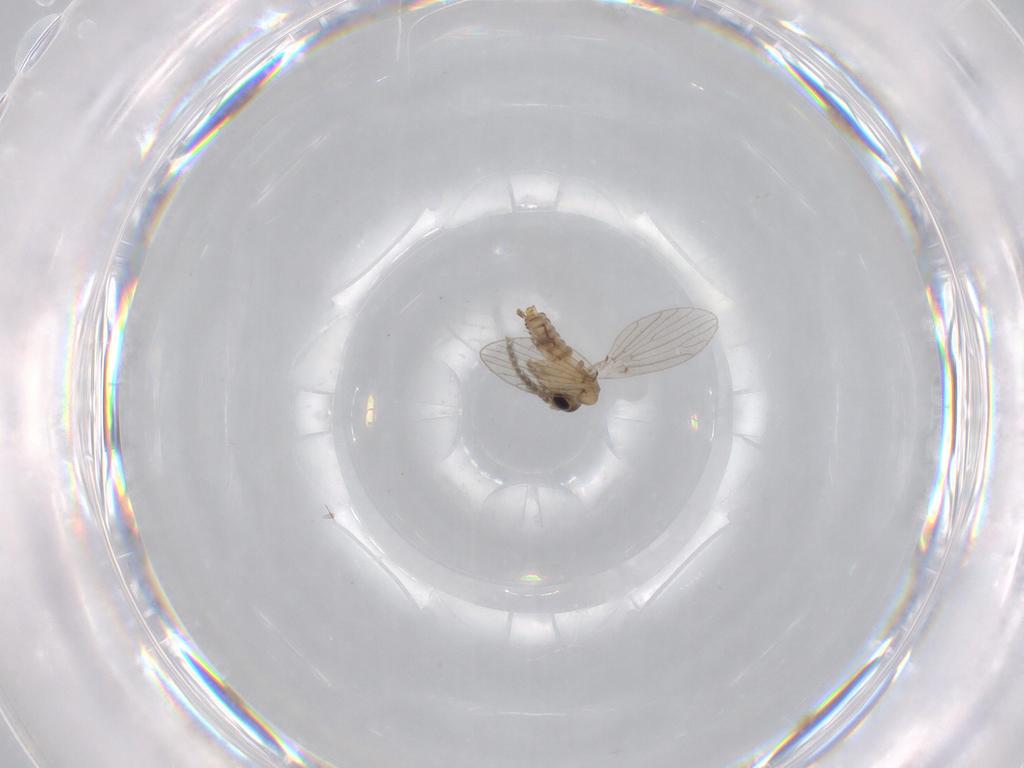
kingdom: Animalia
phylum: Arthropoda
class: Insecta
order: Diptera
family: Psychodidae
